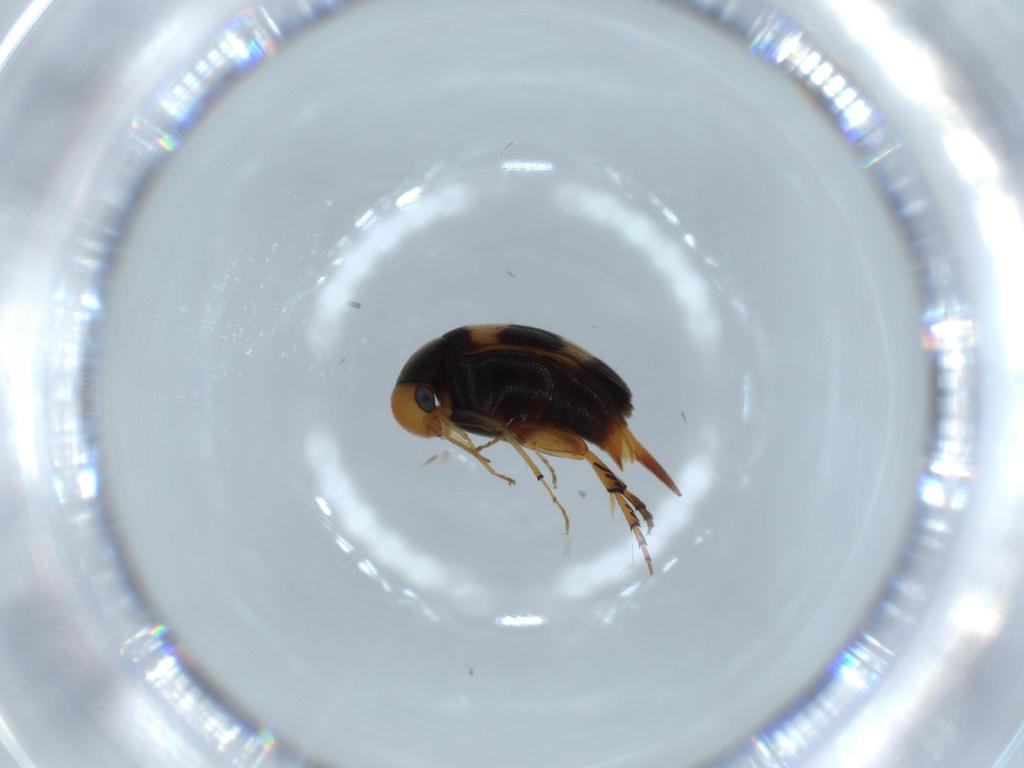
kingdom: Animalia
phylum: Arthropoda
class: Insecta
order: Coleoptera
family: Mordellidae
